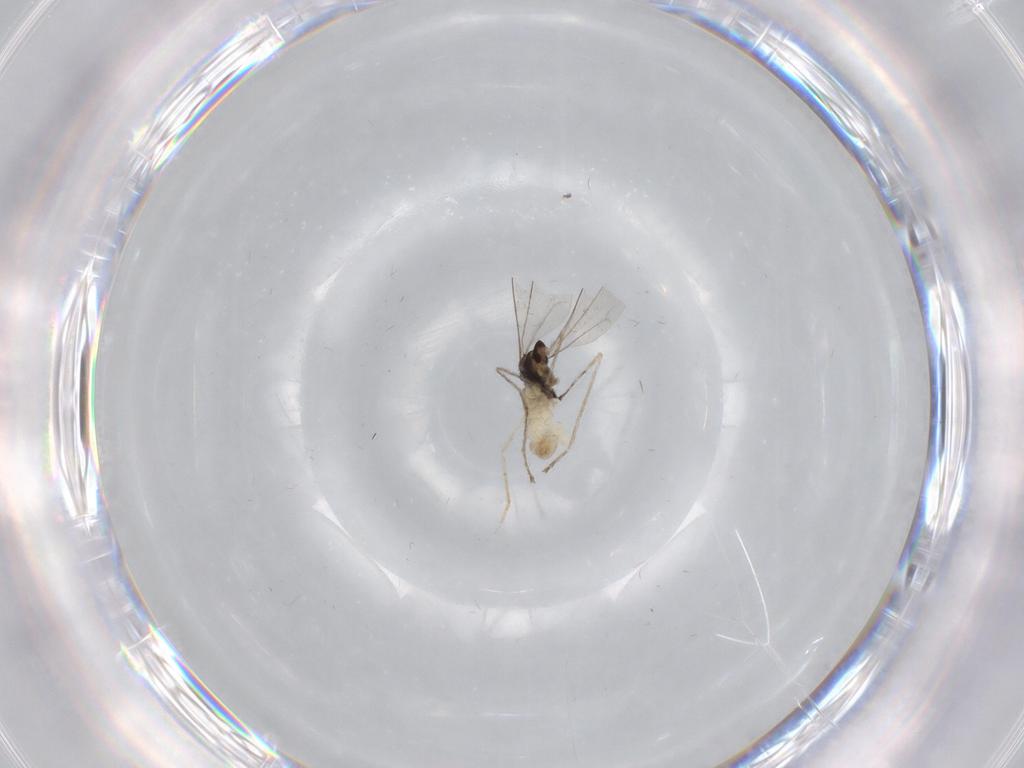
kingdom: Animalia
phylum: Arthropoda
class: Insecta
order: Diptera
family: Cecidomyiidae
